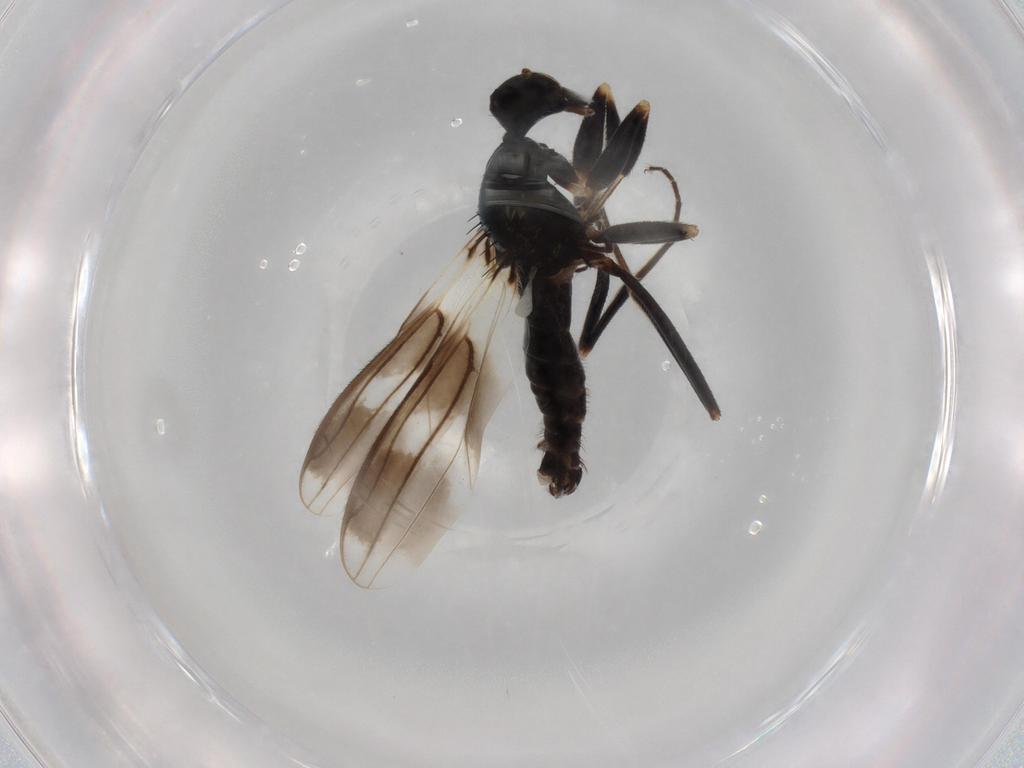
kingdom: Animalia
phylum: Arthropoda
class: Insecta
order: Diptera
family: Hybotidae
